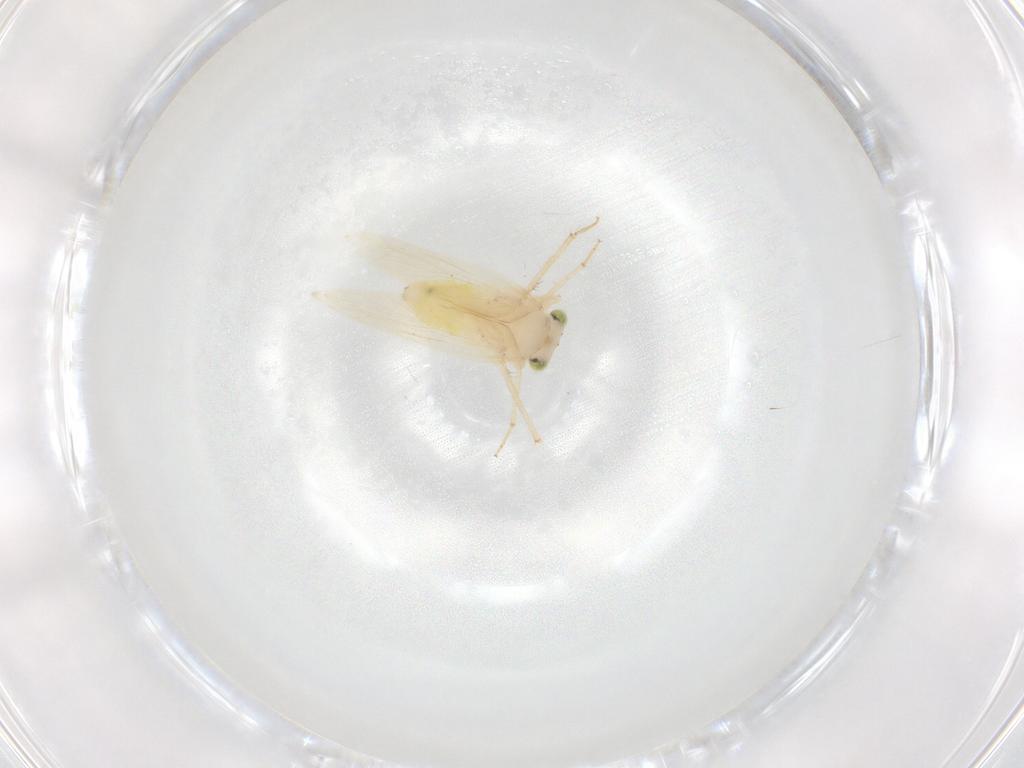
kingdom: Animalia
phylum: Arthropoda
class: Insecta
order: Psocodea
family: Lepidopsocidae
